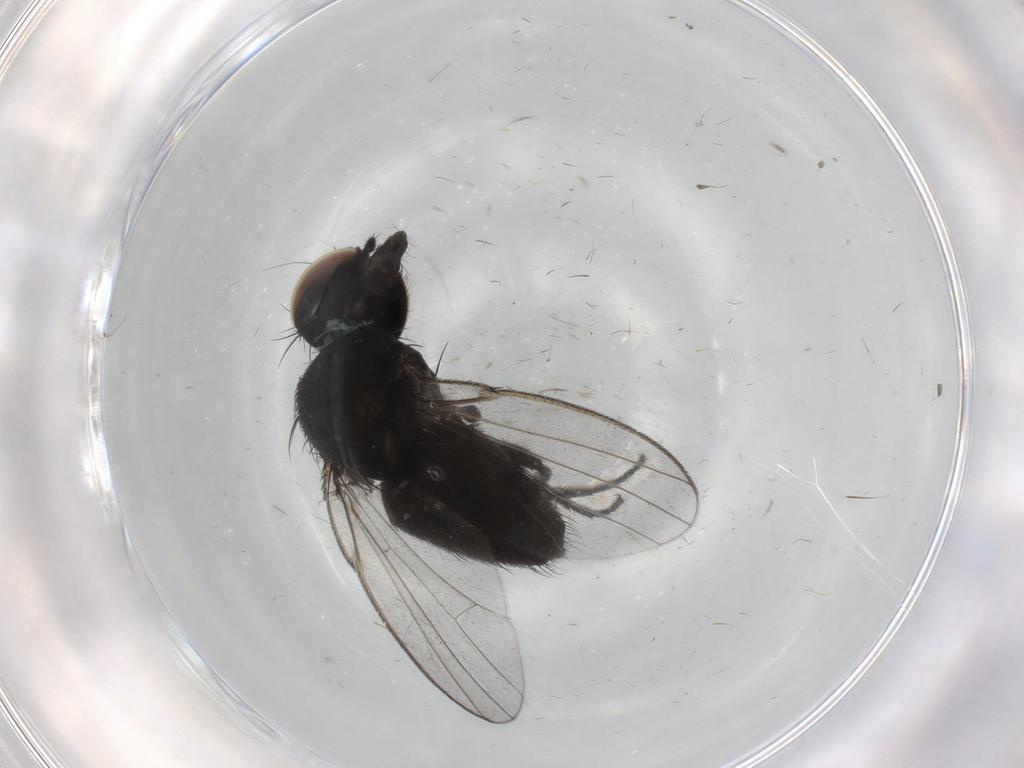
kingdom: Animalia
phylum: Arthropoda
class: Insecta
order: Diptera
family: Milichiidae
